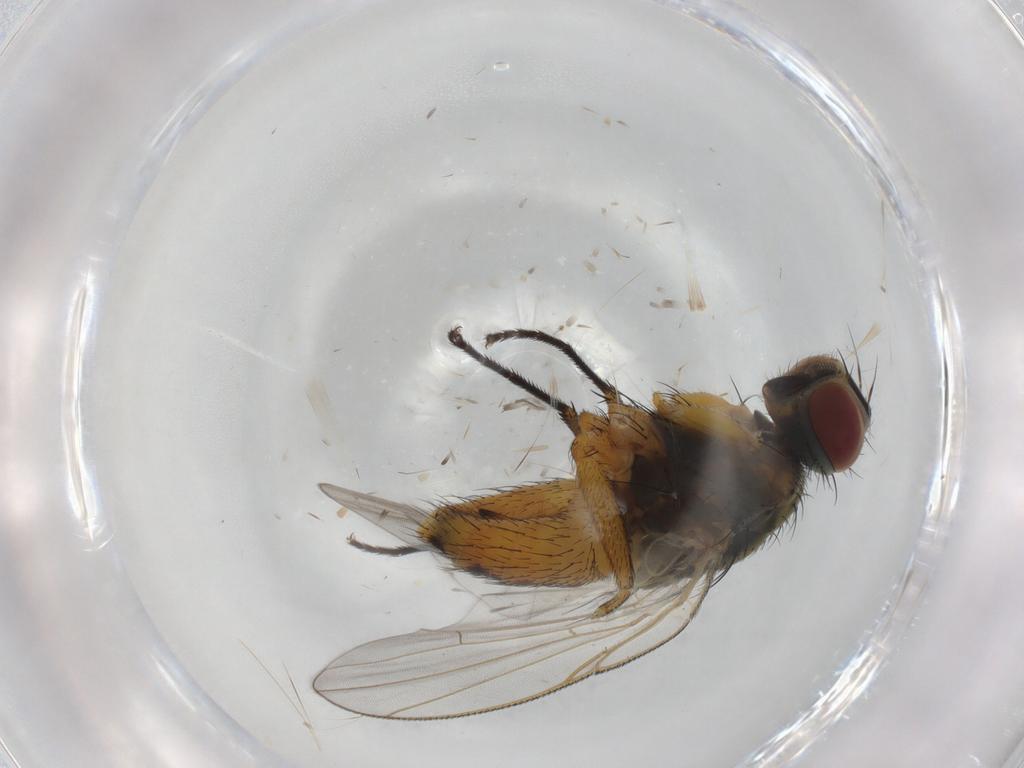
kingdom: Animalia
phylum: Arthropoda
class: Insecta
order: Diptera
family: Muscidae
